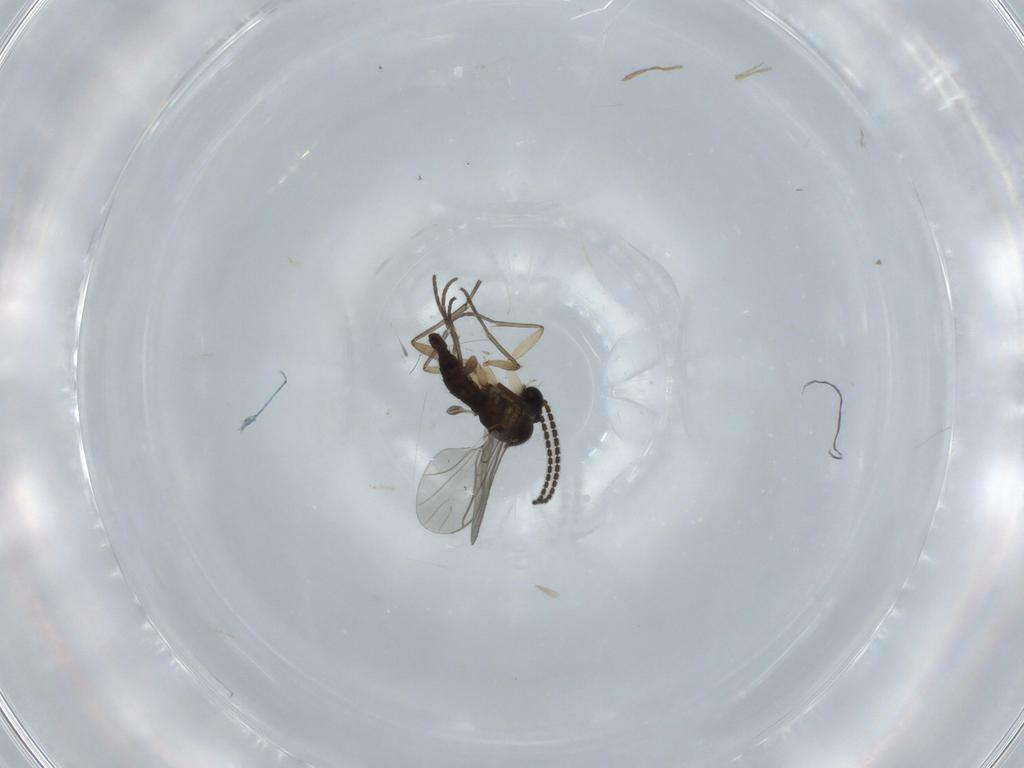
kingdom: Animalia
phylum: Arthropoda
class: Insecta
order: Diptera
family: Sciaridae
